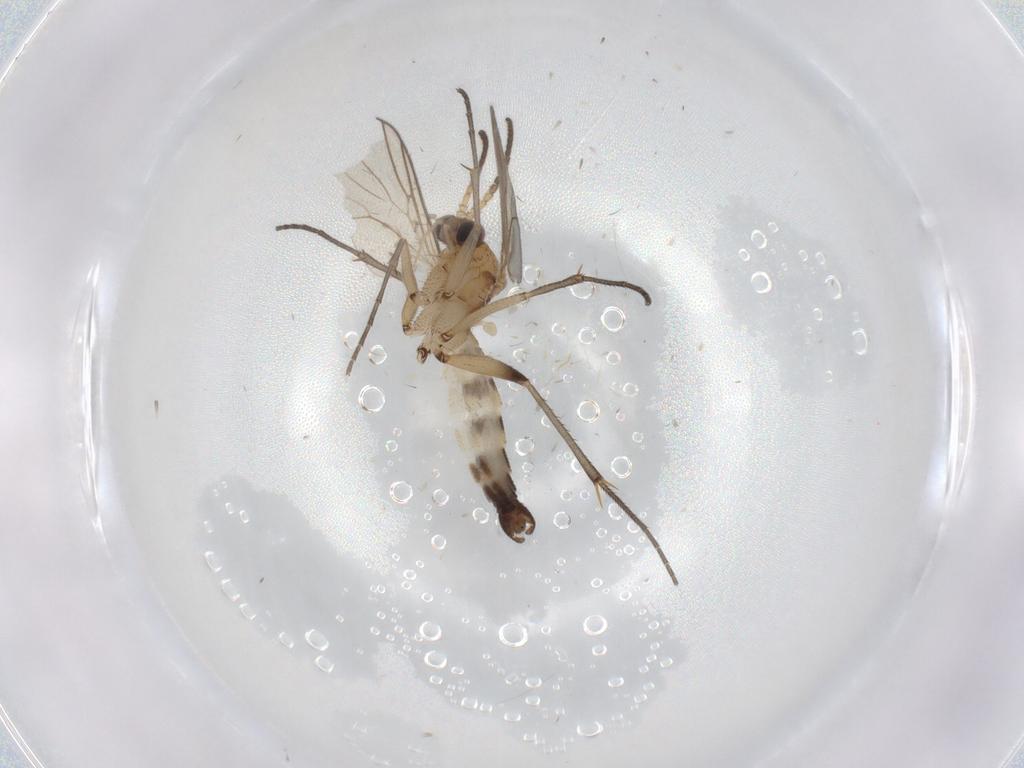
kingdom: Animalia
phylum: Arthropoda
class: Insecta
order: Diptera
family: Cecidomyiidae
